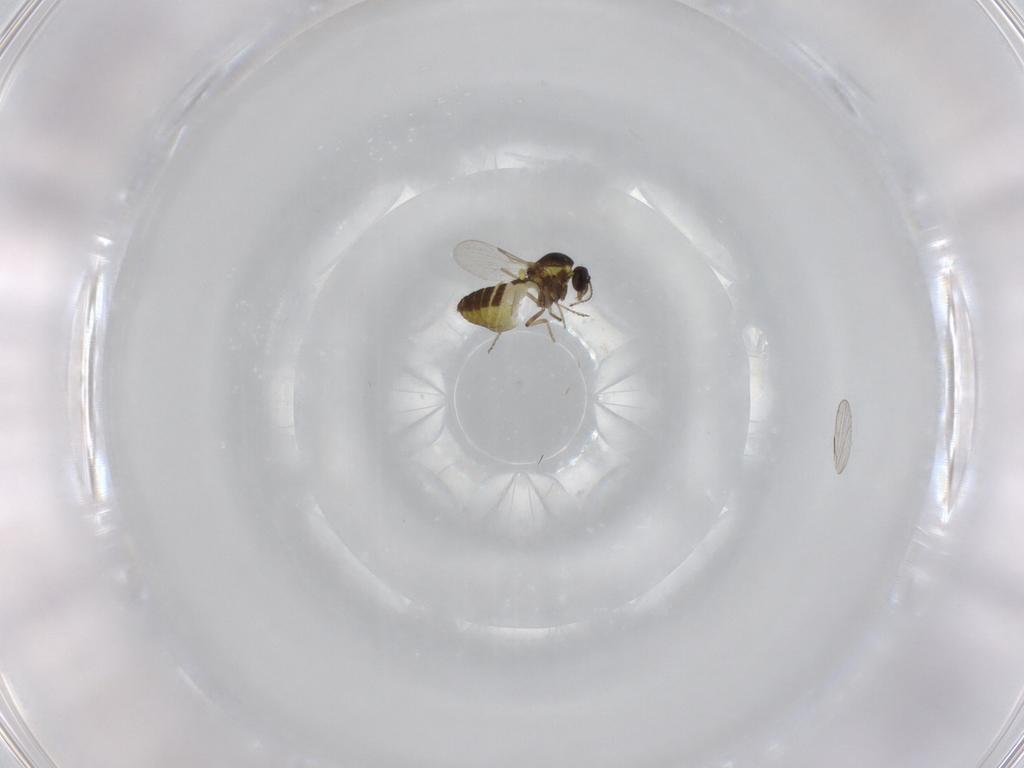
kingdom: Animalia
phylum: Arthropoda
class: Insecta
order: Diptera
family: Ceratopogonidae
